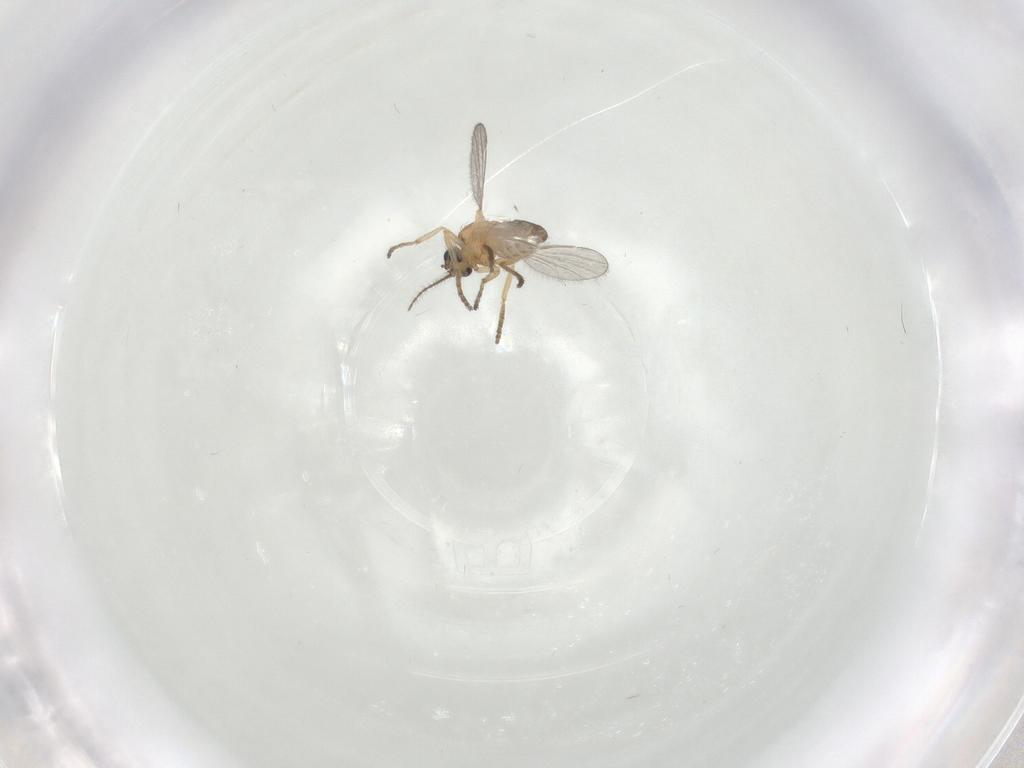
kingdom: Animalia
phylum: Arthropoda
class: Insecta
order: Diptera
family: Ceratopogonidae
